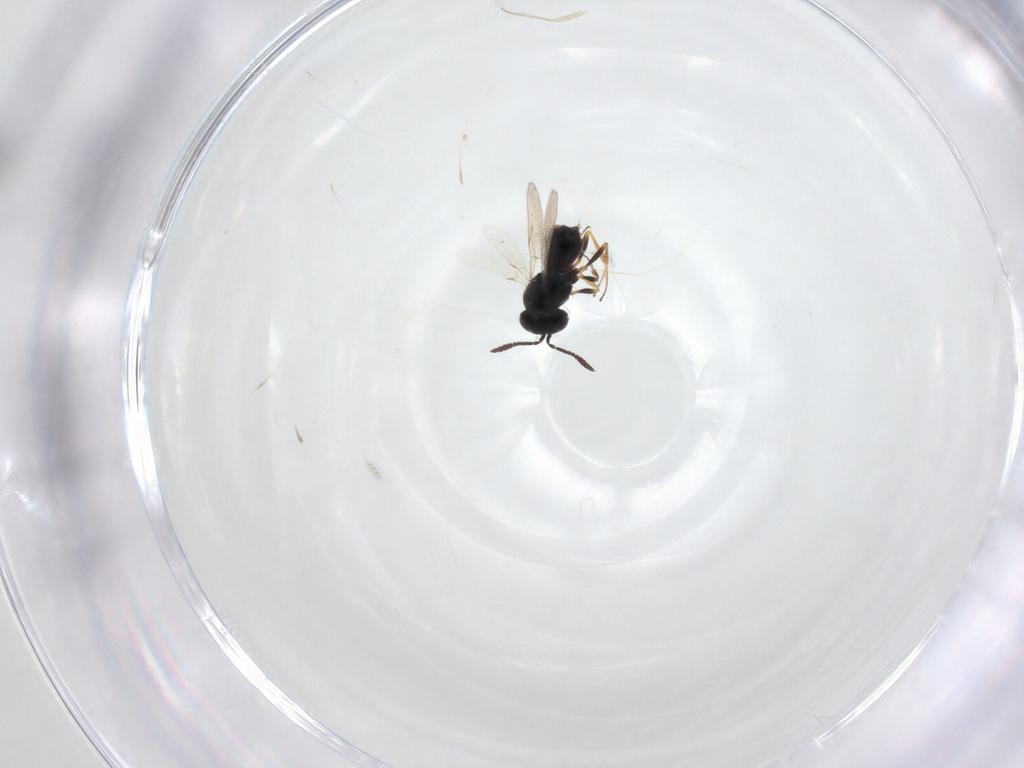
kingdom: Animalia
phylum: Arthropoda
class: Insecta
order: Hymenoptera
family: Scelionidae
